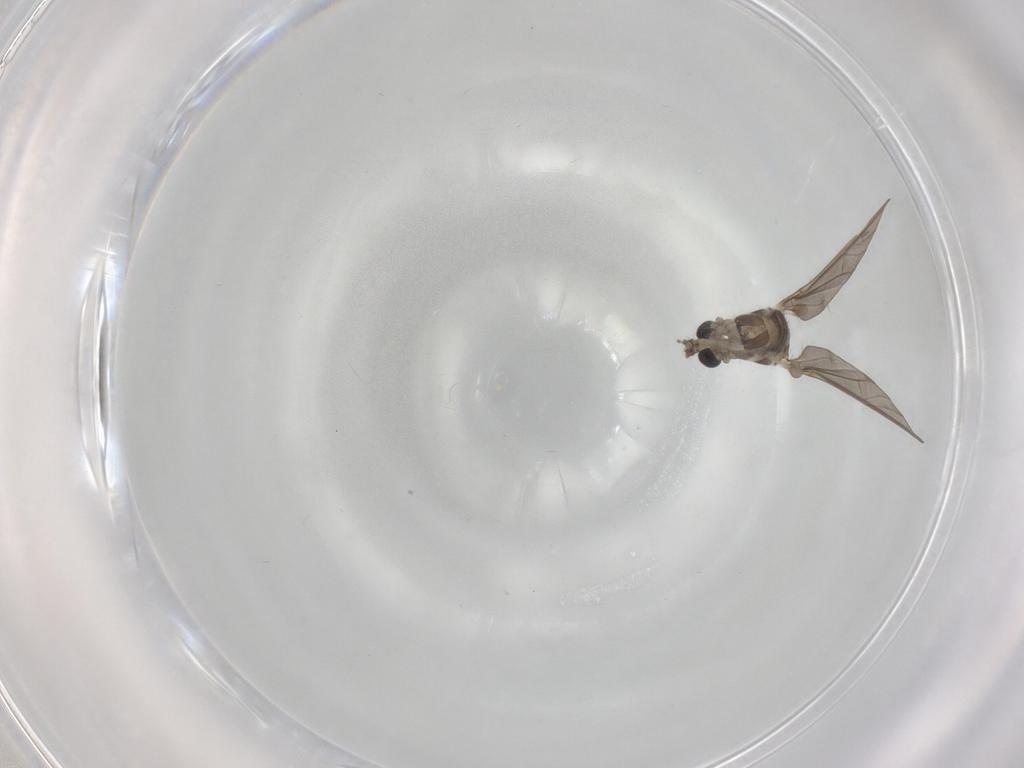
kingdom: Animalia
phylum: Arthropoda
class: Insecta
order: Diptera
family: Limoniidae
